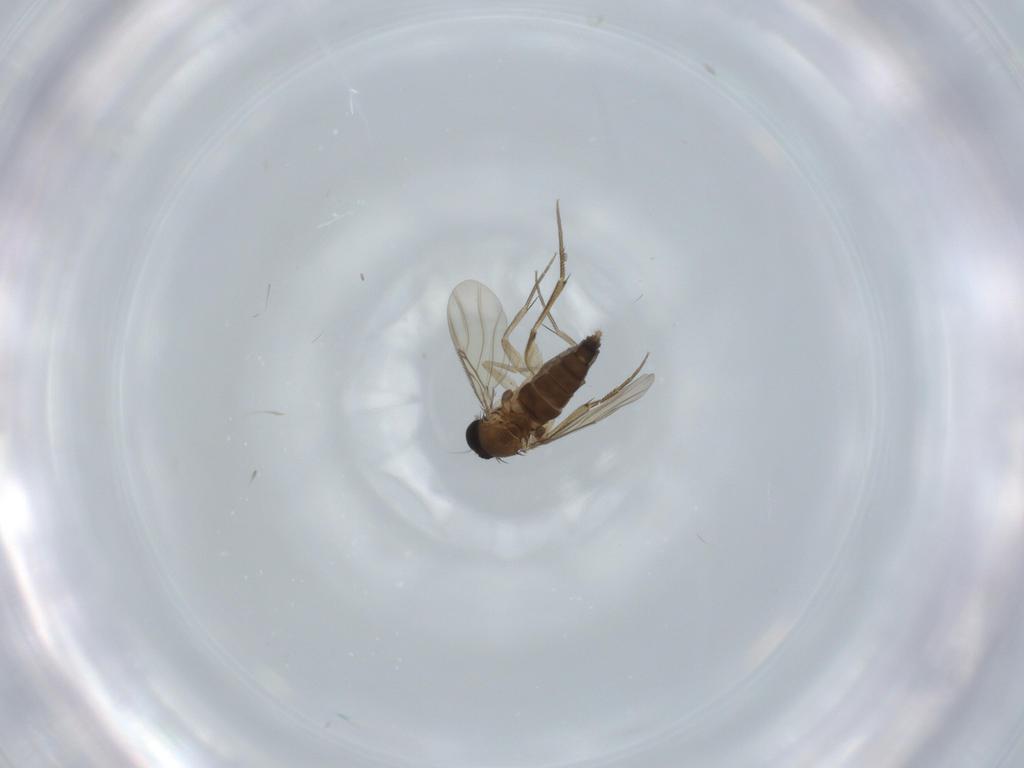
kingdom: Animalia
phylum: Arthropoda
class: Insecta
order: Diptera
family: Phoridae
